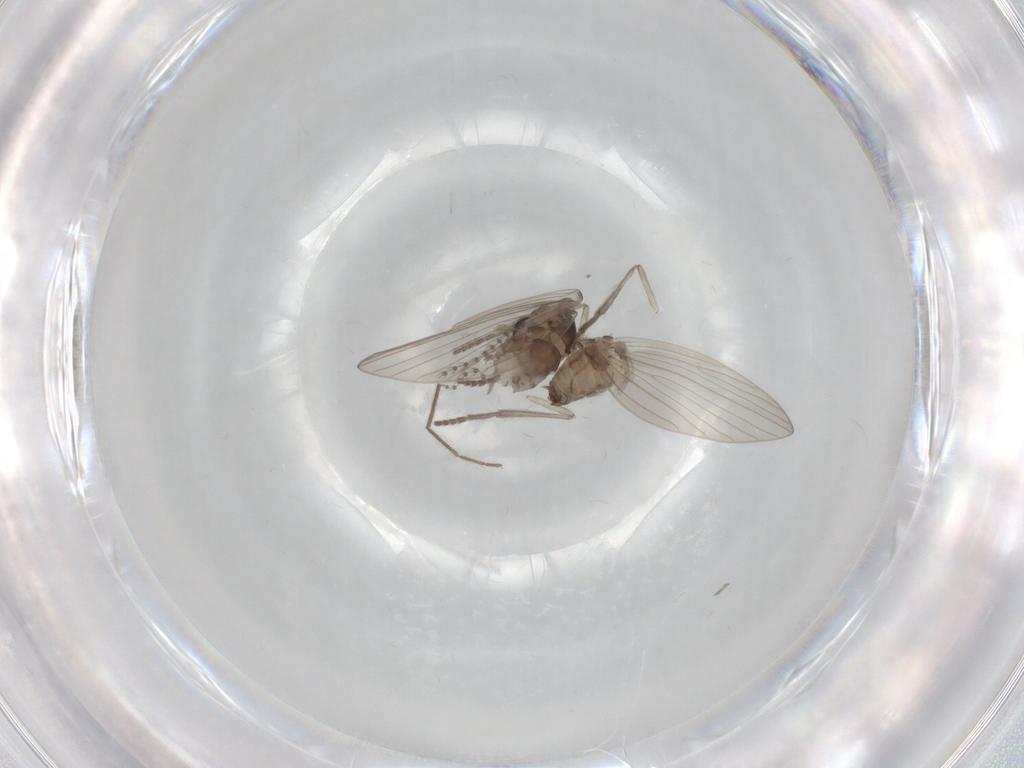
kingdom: Animalia
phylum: Arthropoda
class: Insecta
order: Diptera
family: Psychodidae
